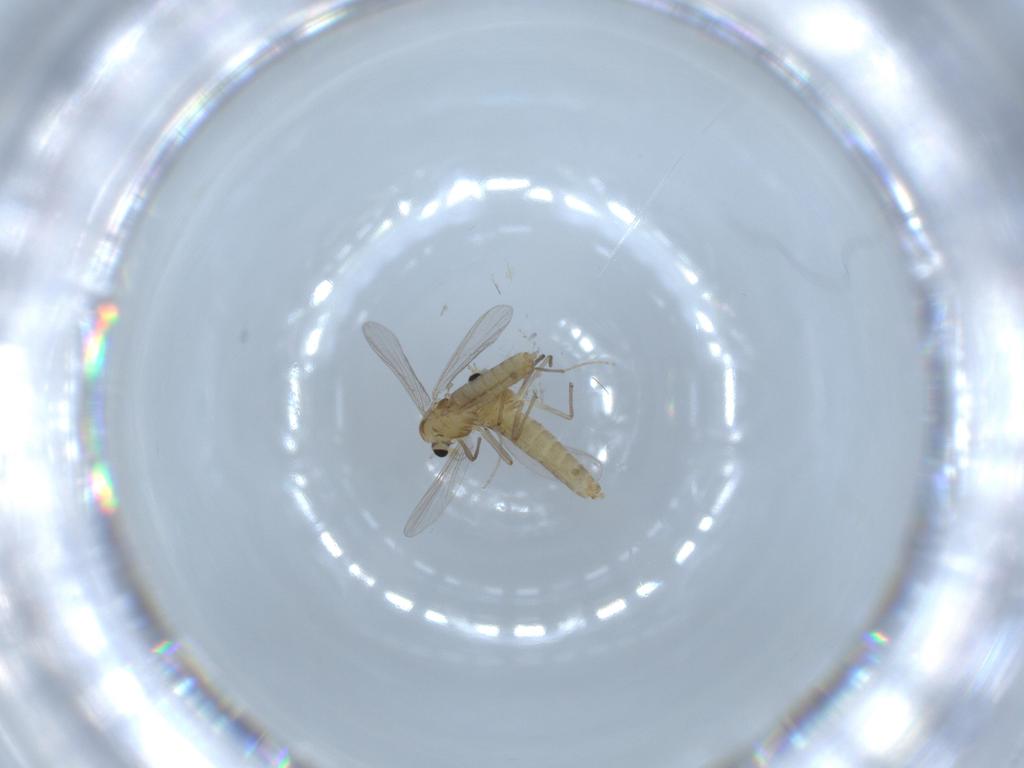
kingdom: Animalia
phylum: Arthropoda
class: Insecta
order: Diptera
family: Chironomidae
